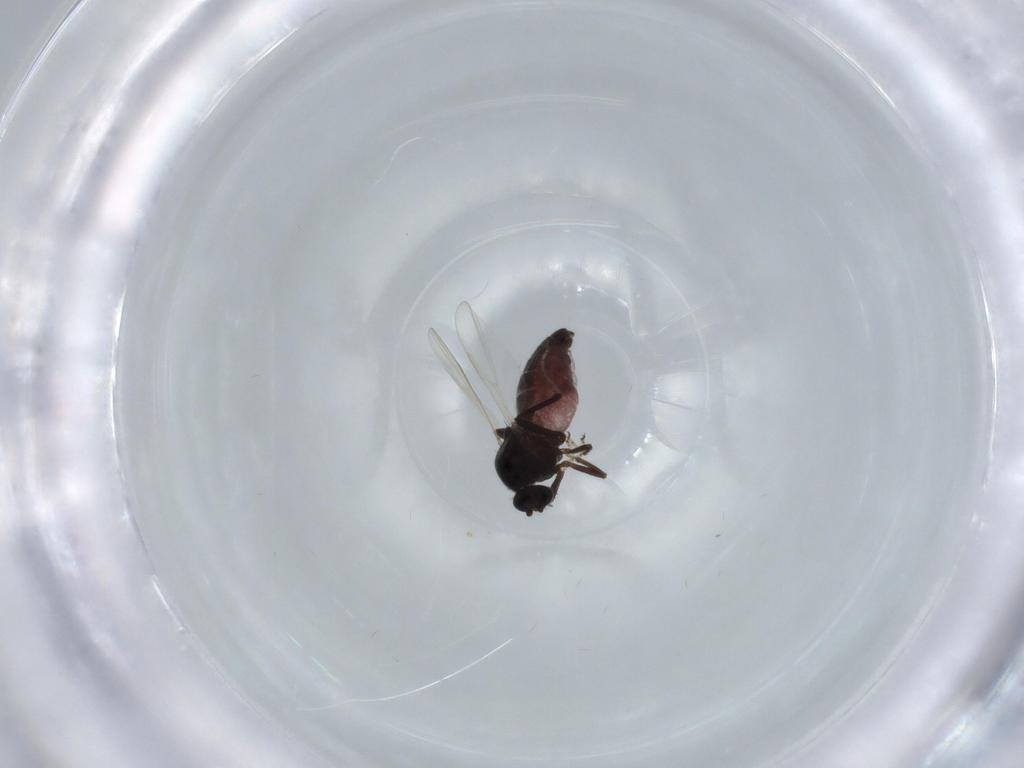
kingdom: Animalia
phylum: Arthropoda
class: Insecta
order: Diptera
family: Ceratopogonidae
